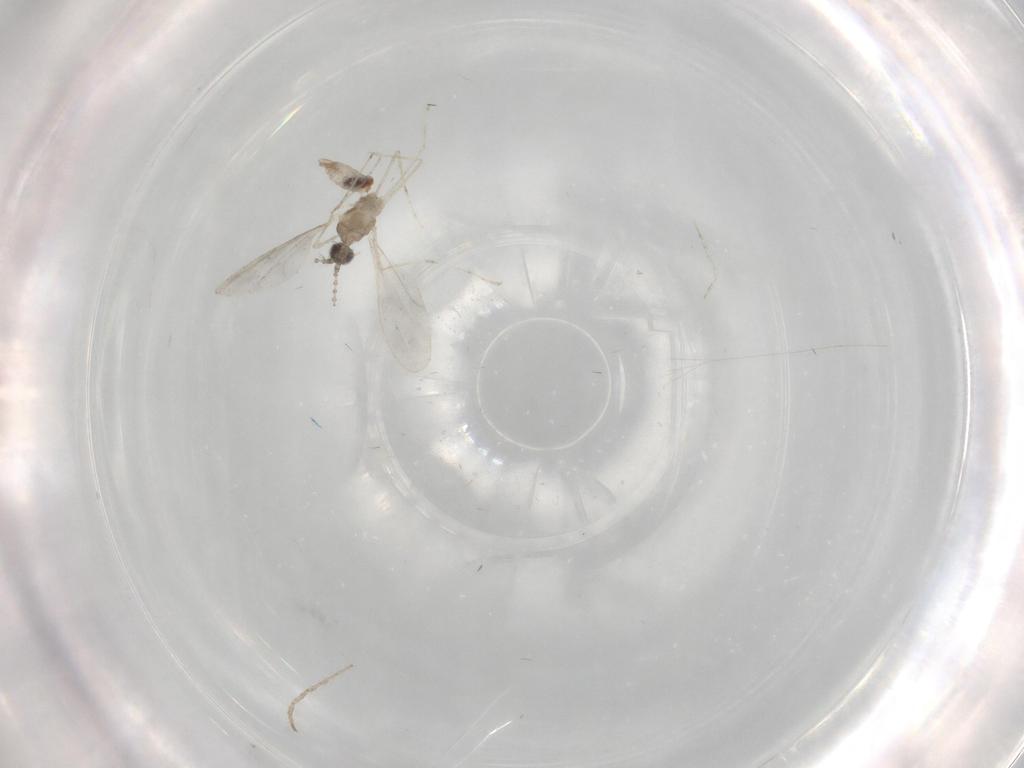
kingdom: Animalia
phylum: Arthropoda
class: Insecta
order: Diptera
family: Cecidomyiidae
